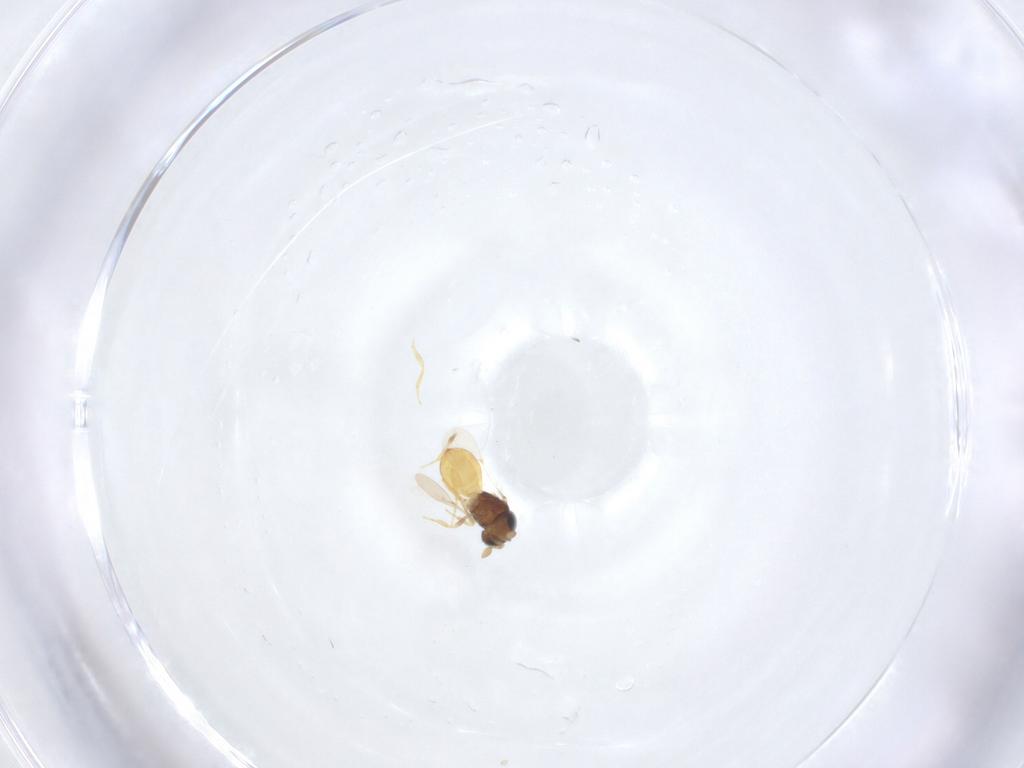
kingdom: Animalia
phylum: Arthropoda
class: Insecta
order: Hymenoptera
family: Scelionidae
